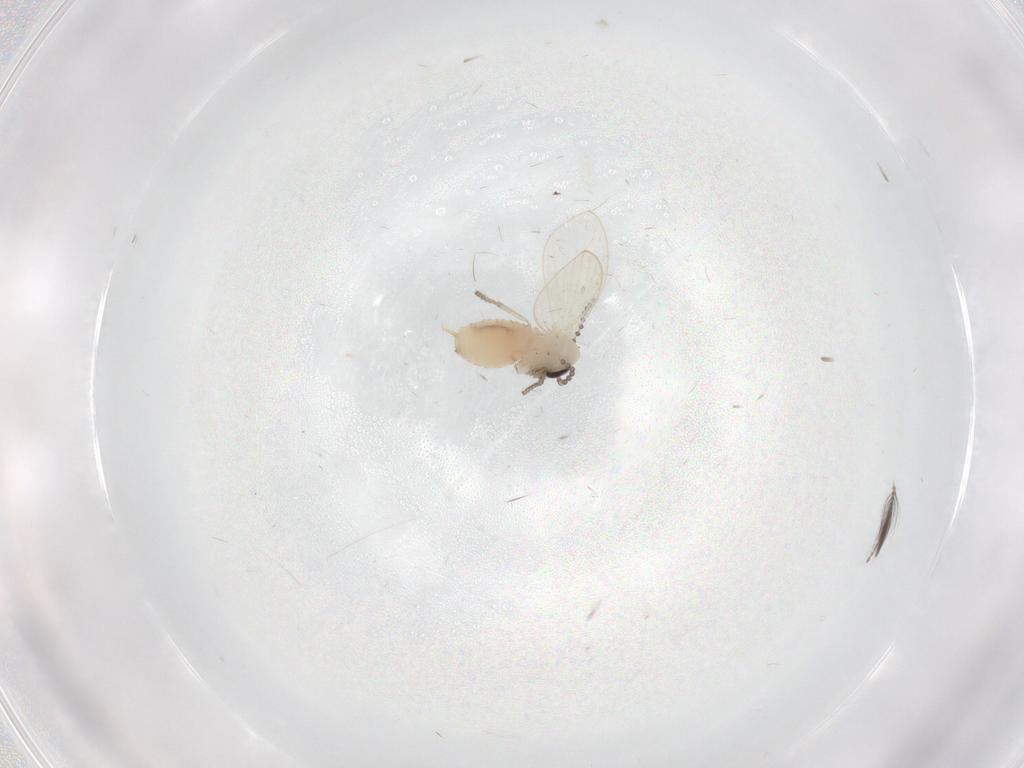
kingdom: Animalia
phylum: Arthropoda
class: Insecta
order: Diptera
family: Psychodidae
